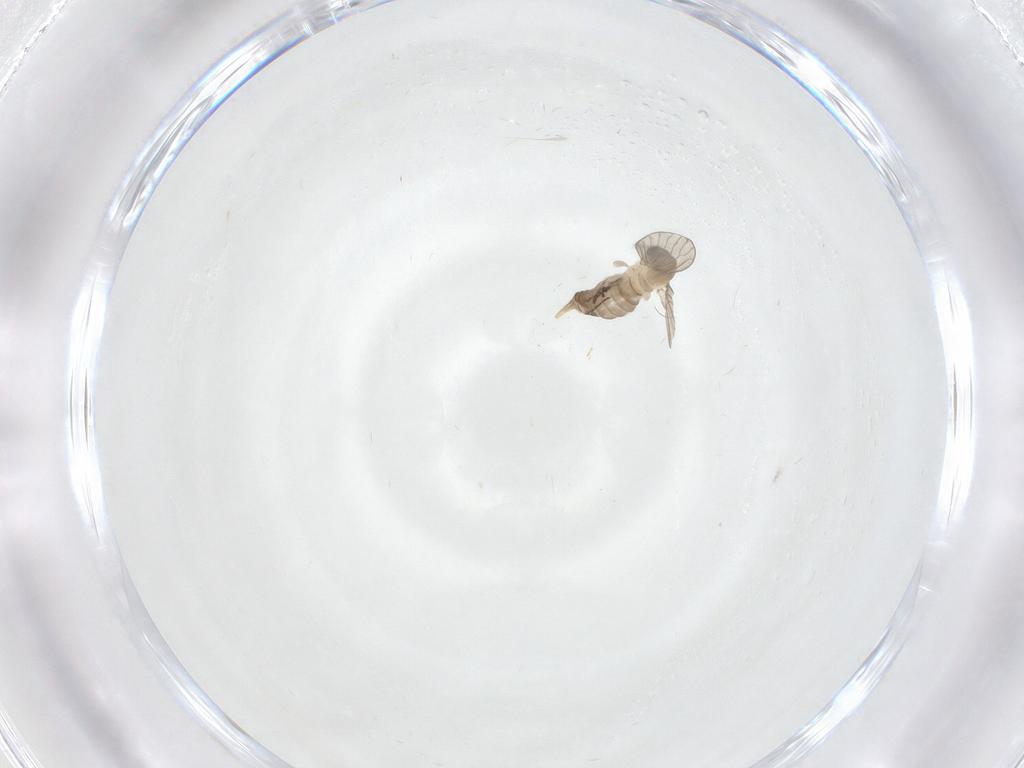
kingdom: Animalia
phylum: Arthropoda
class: Insecta
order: Diptera
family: Psychodidae
